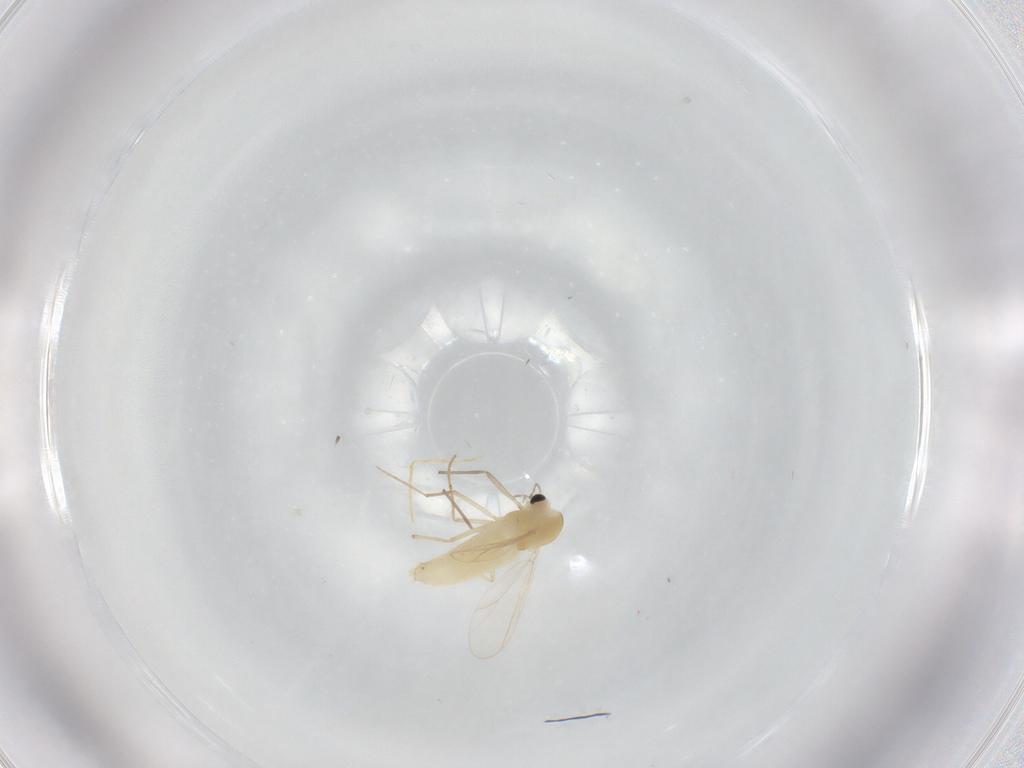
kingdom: Animalia
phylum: Arthropoda
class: Insecta
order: Diptera
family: Chironomidae
